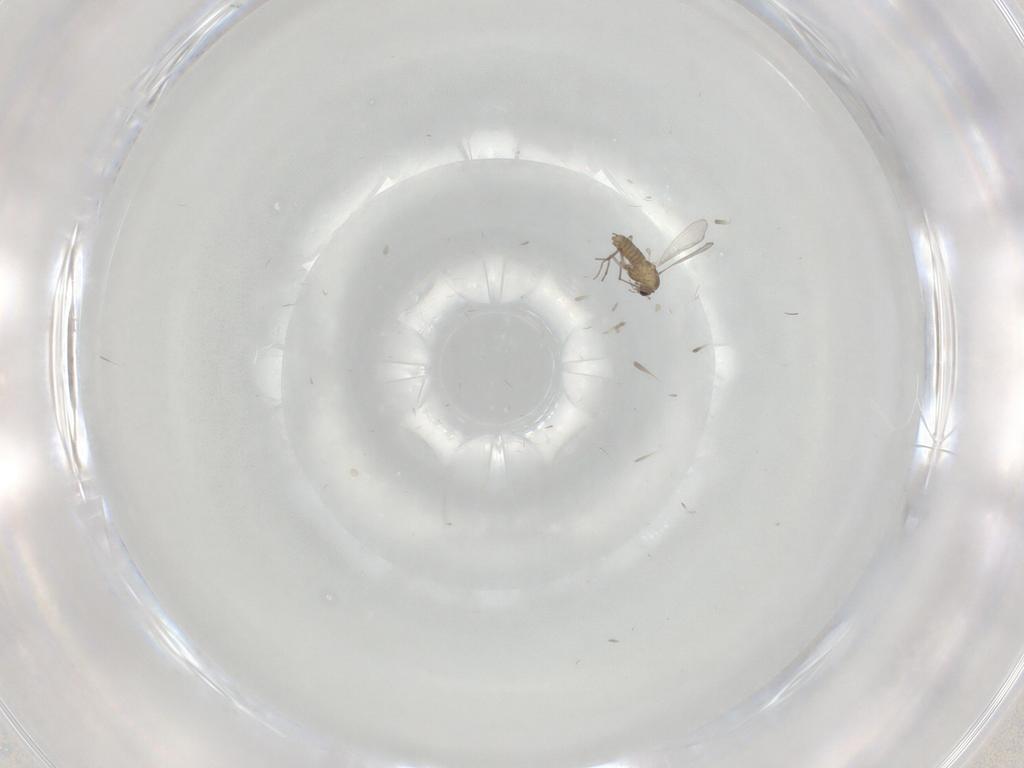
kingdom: Animalia
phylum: Arthropoda
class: Insecta
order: Diptera
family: Chironomidae
